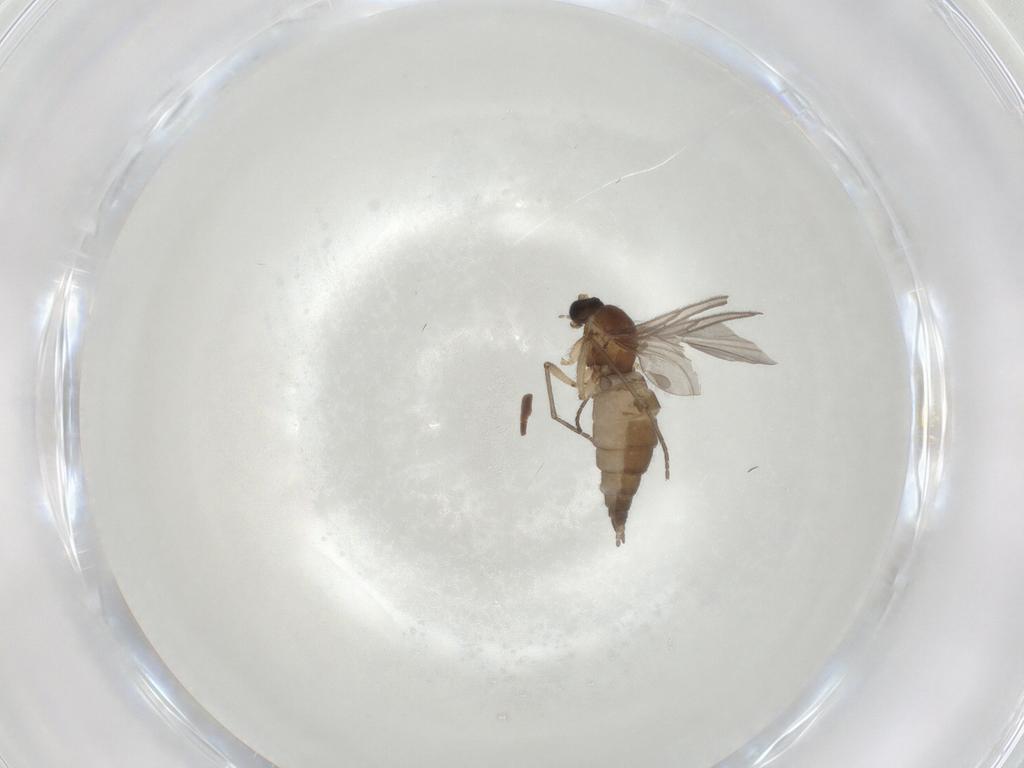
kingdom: Animalia
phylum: Arthropoda
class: Insecta
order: Diptera
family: Sciaridae
